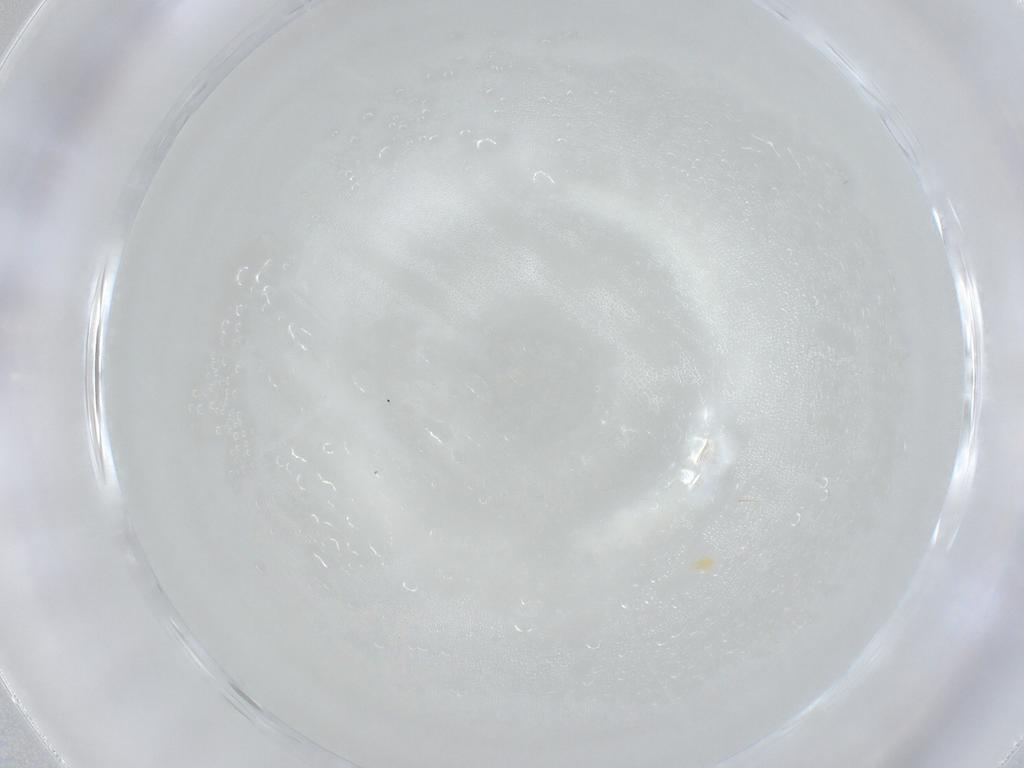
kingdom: Animalia
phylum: Arthropoda
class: Insecta
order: Diptera
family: Acroceridae
